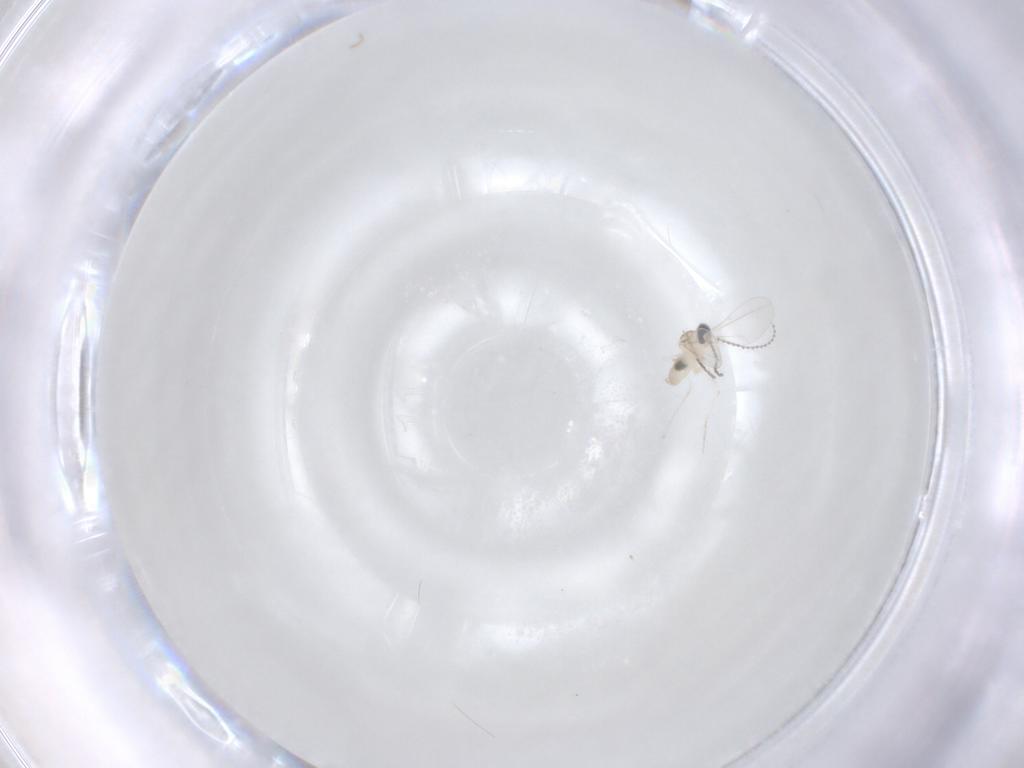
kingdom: Animalia
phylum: Arthropoda
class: Insecta
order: Diptera
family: Cecidomyiidae
